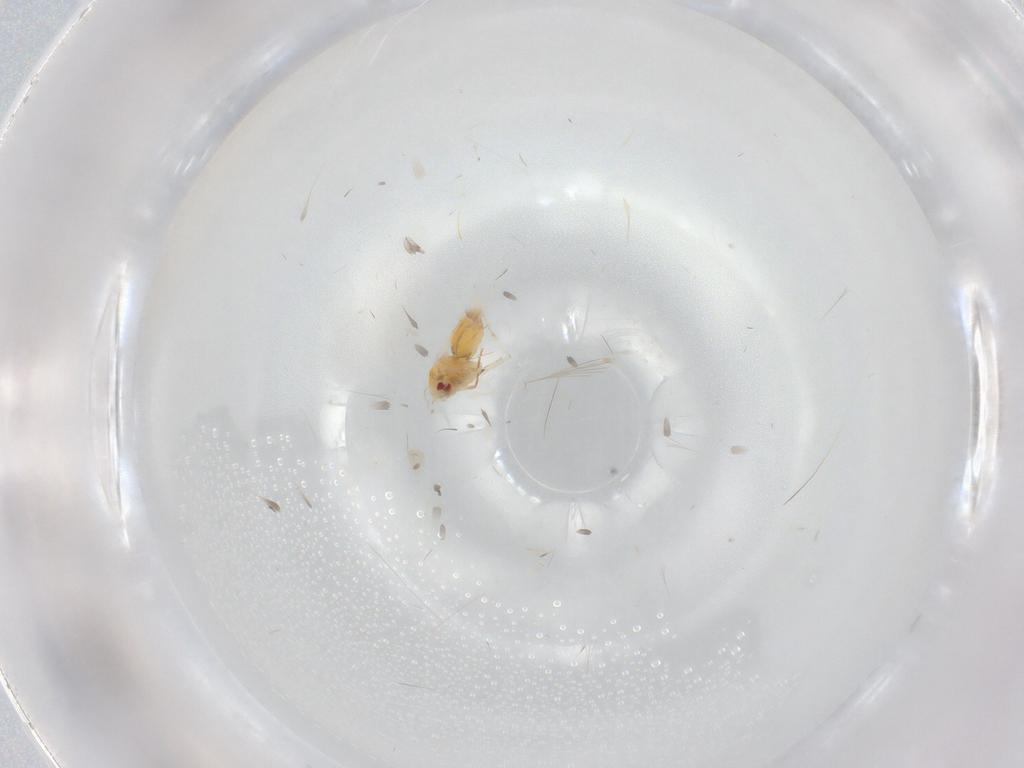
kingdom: Animalia
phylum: Arthropoda
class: Insecta
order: Hemiptera
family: Aleyrodidae
